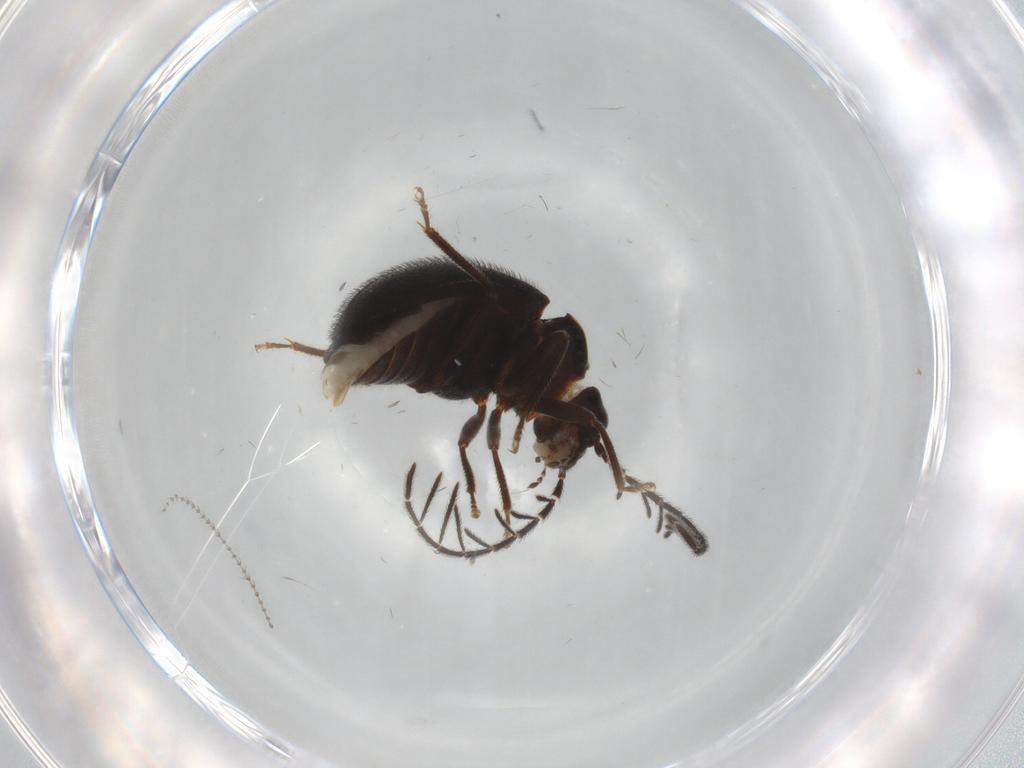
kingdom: Animalia
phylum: Arthropoda
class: Insecta
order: Coleoptera
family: Ptilodactylidae
